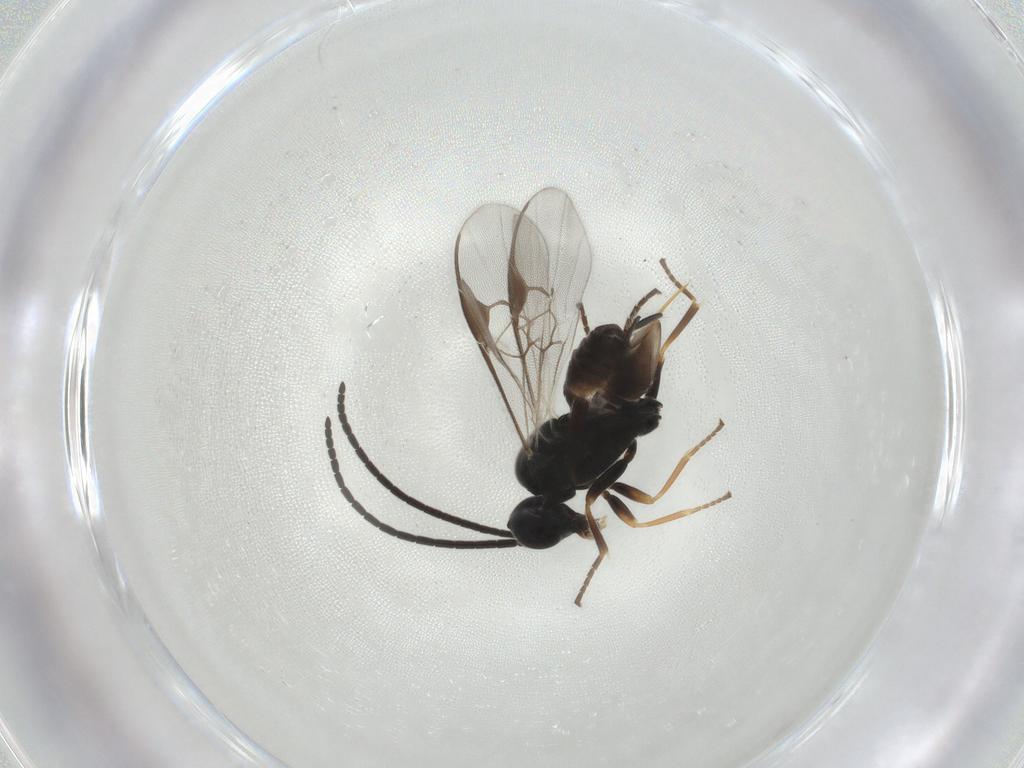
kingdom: Animalia
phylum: Arthropoda
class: Insecta
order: Hymenoptera
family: Braconidae
